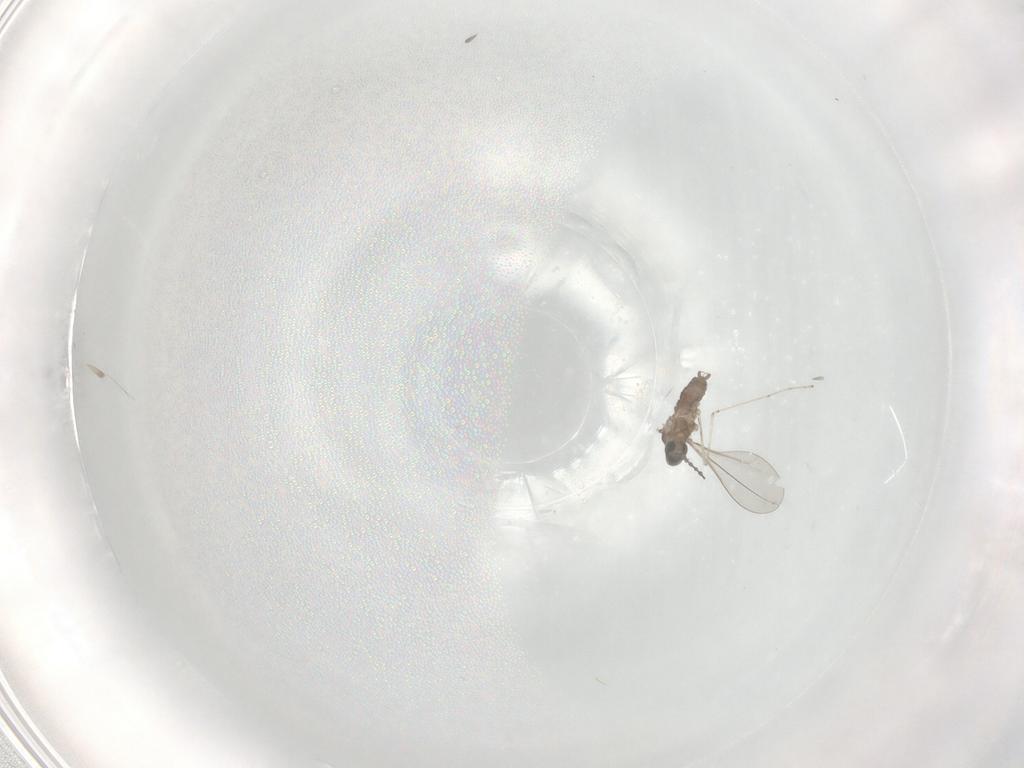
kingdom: Animalia
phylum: Arthropoda
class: Insecta
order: Diptera
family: Cecidomyiidae
